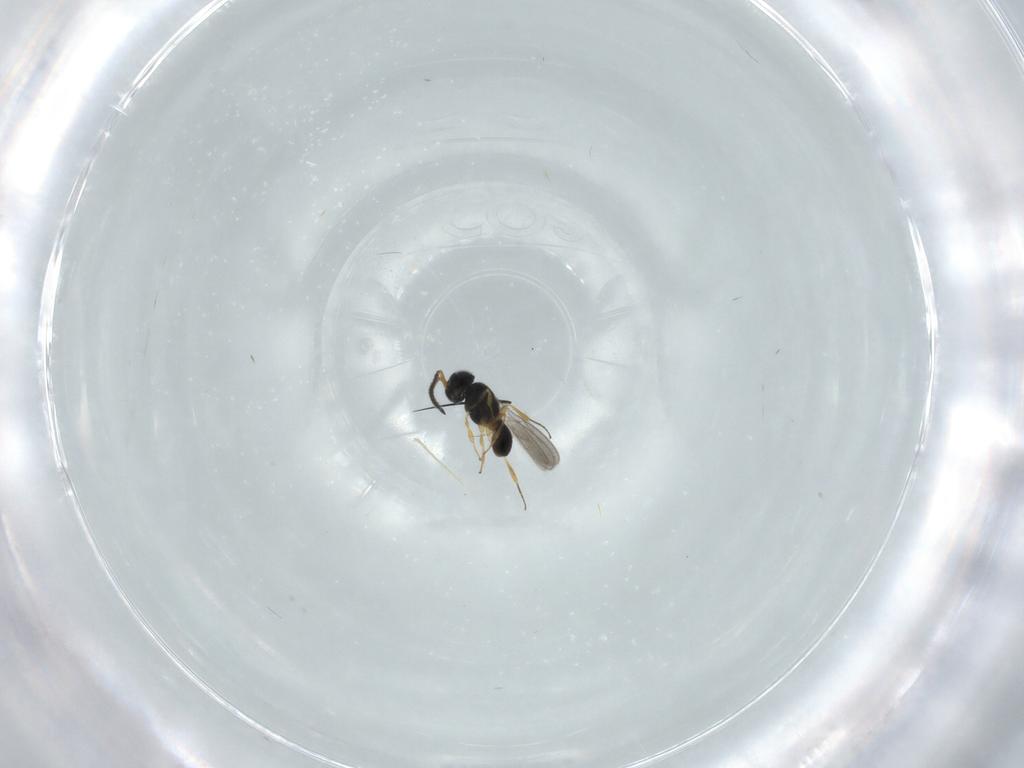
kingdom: Animalia
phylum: Arthropoda
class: Insecta
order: Hymenoptera
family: Scelionidae
